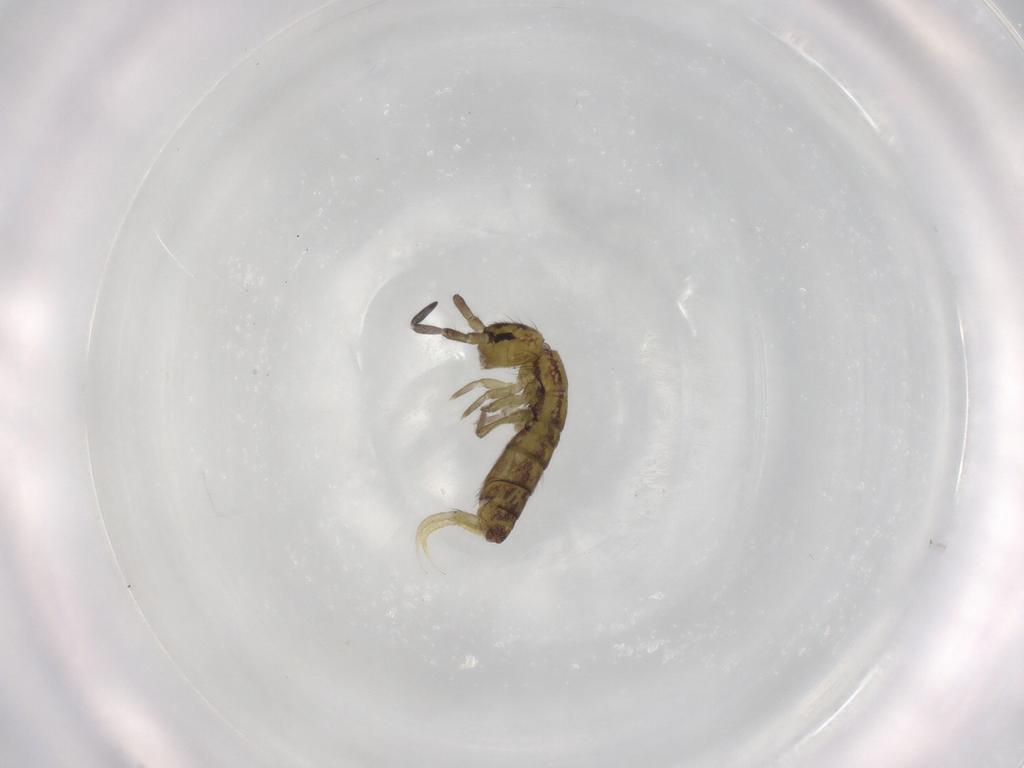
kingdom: Animalia
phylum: Arthropoda
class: Collembola
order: Entomobryomorpha
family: Isotomidae
